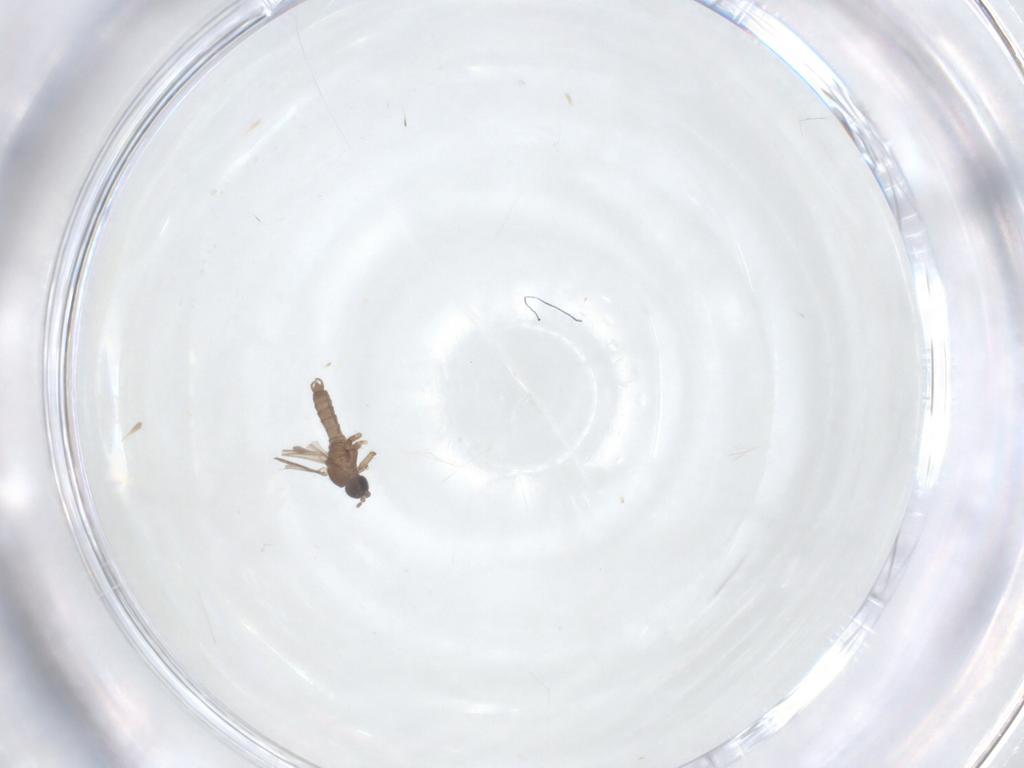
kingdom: Animalia
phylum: Arthropoda
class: Insecta
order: Diptera
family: Sciaridae
